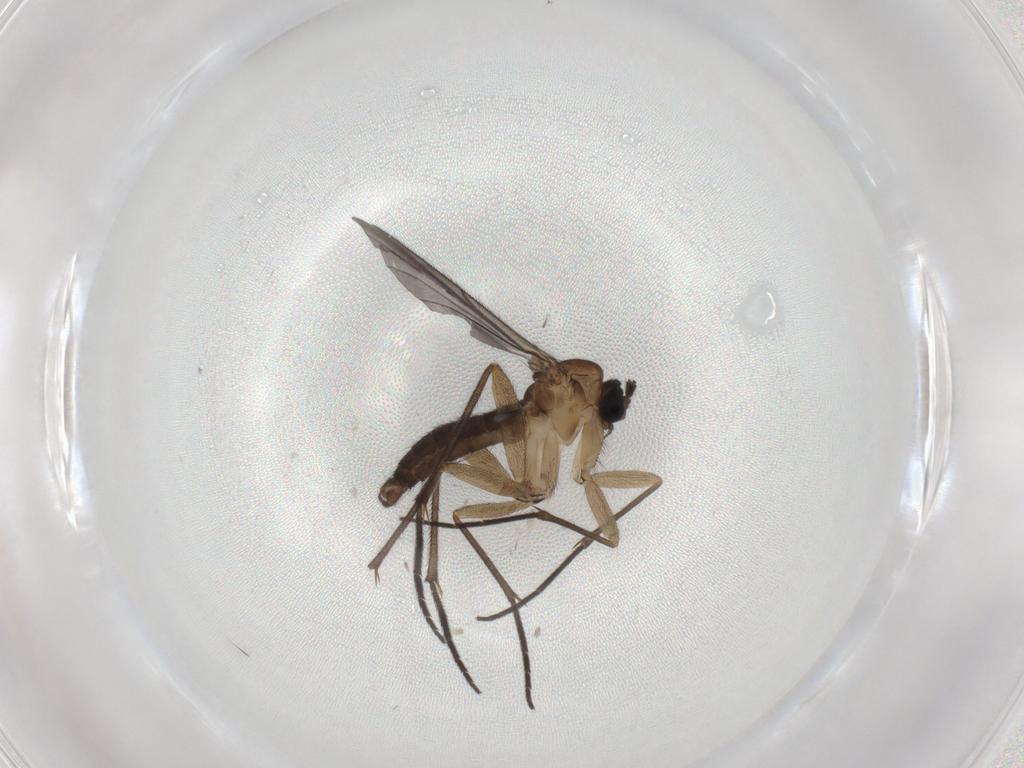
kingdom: Animalia
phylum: Arthropoda
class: Insecta
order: Diptera
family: Sciaridae
